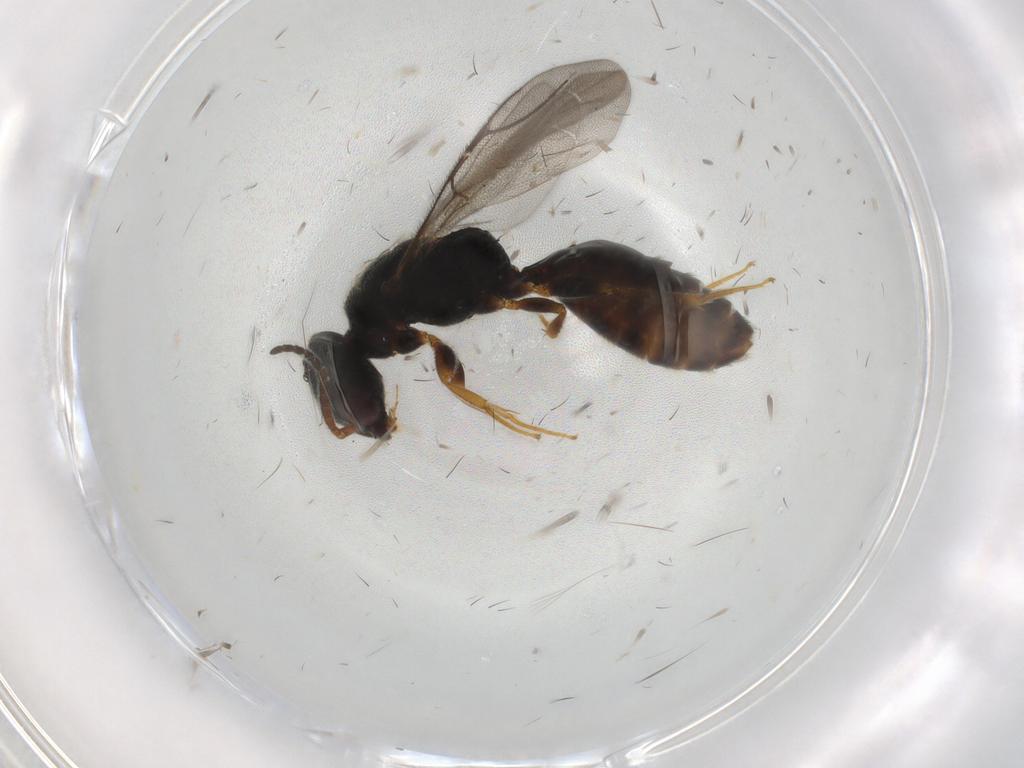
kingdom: Animalia
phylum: Arthropoda
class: Insecta
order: Hymenoptera
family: Bethylidae
